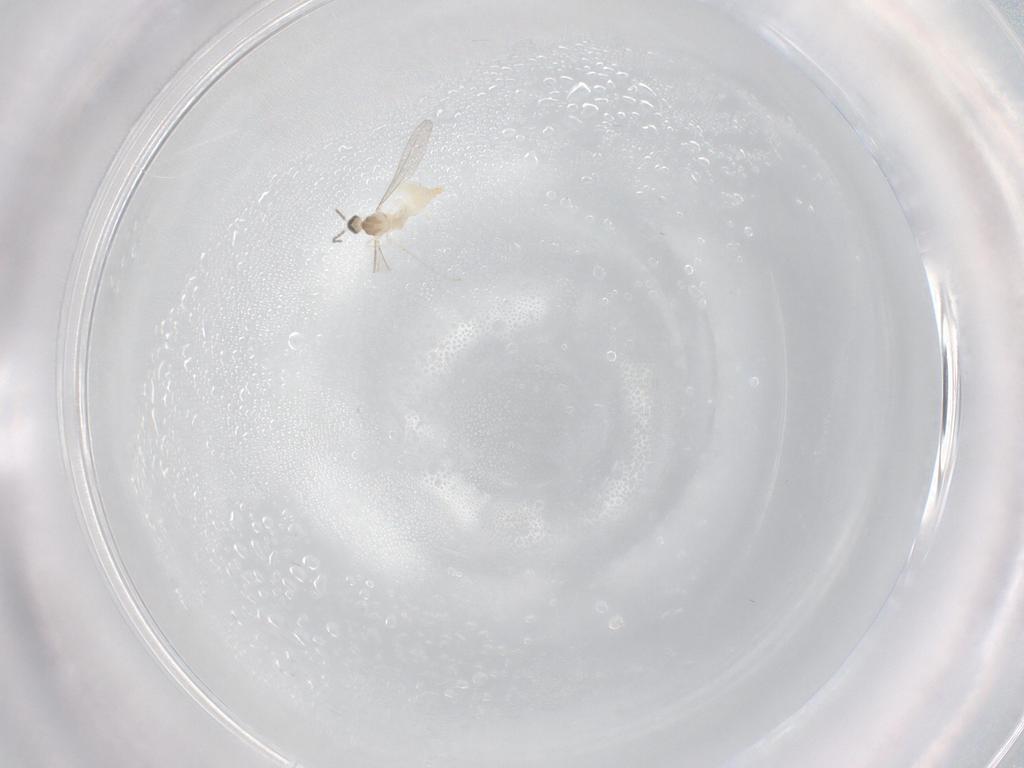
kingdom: Animalia
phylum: Arthropoda
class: Insecta
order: Diptera
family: Cecidomyiidae
